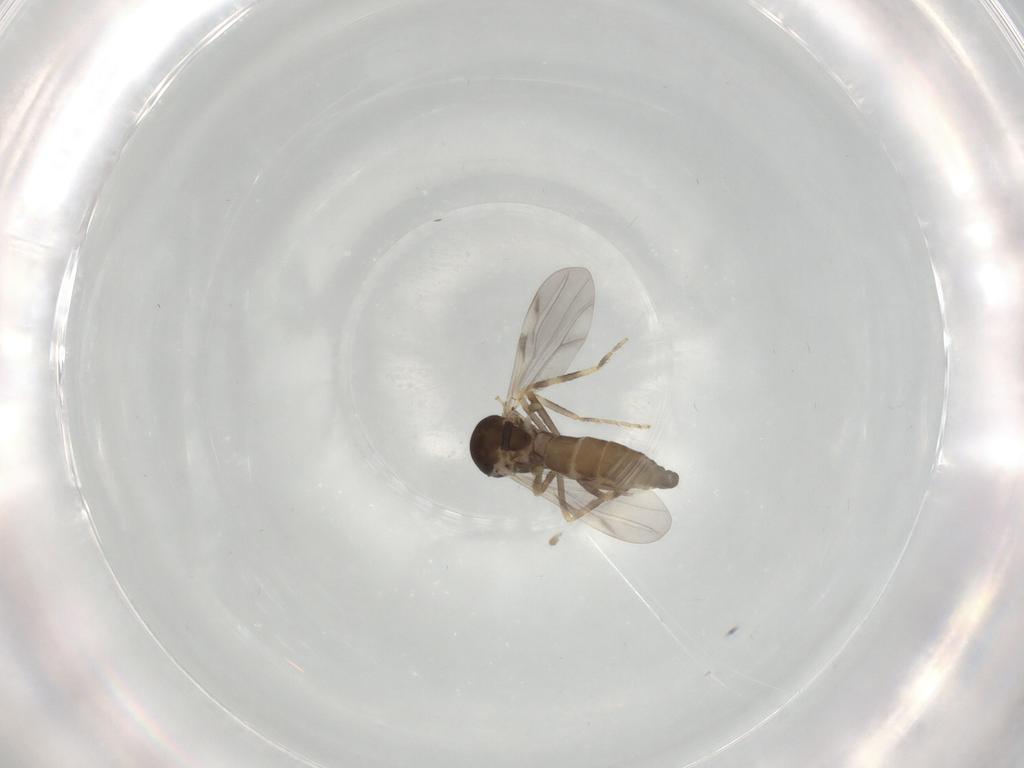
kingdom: Animalia
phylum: Arthropoda
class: Insecta
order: Diptera
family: Ceratopogonidae
